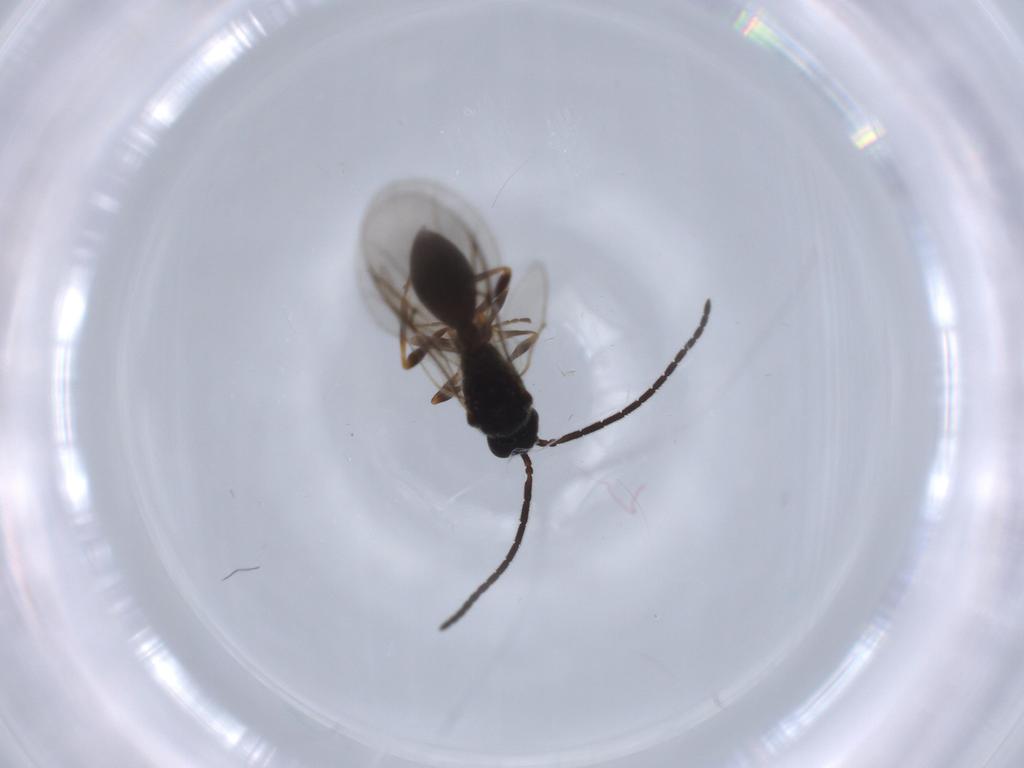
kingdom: Animalia
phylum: Arthropoda
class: Insecta
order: Hymenoptera
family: Diapriidae
